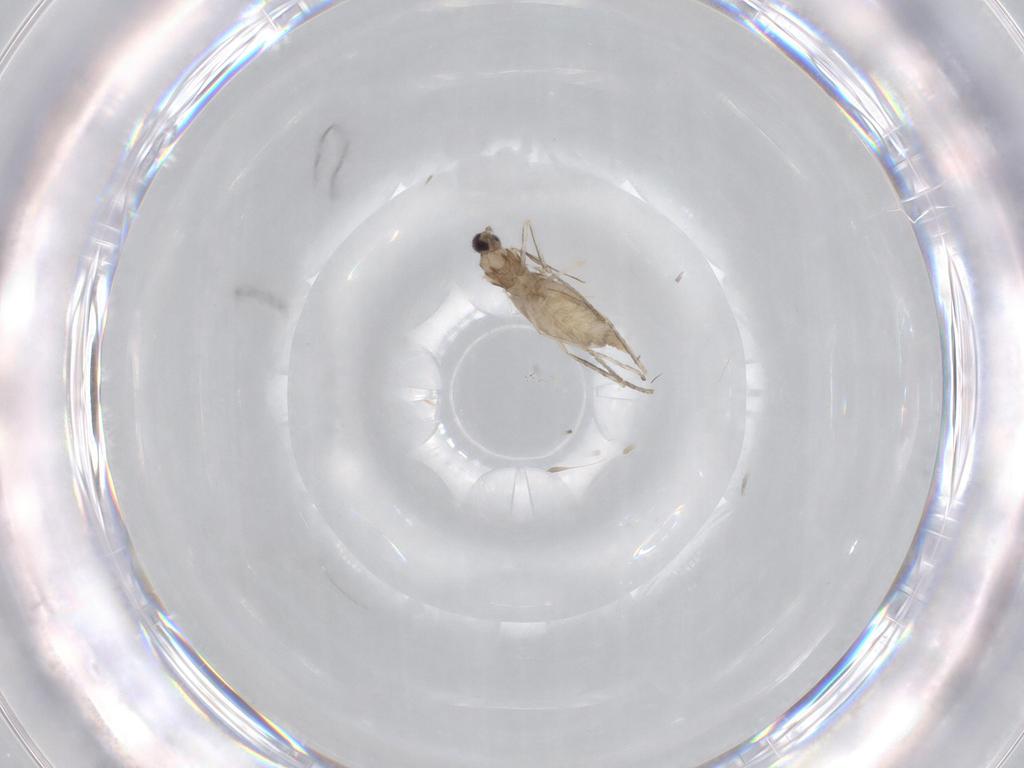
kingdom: Animalia
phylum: Arthropoda
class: Insecta
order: Diptera
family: Cecidomyiidae
